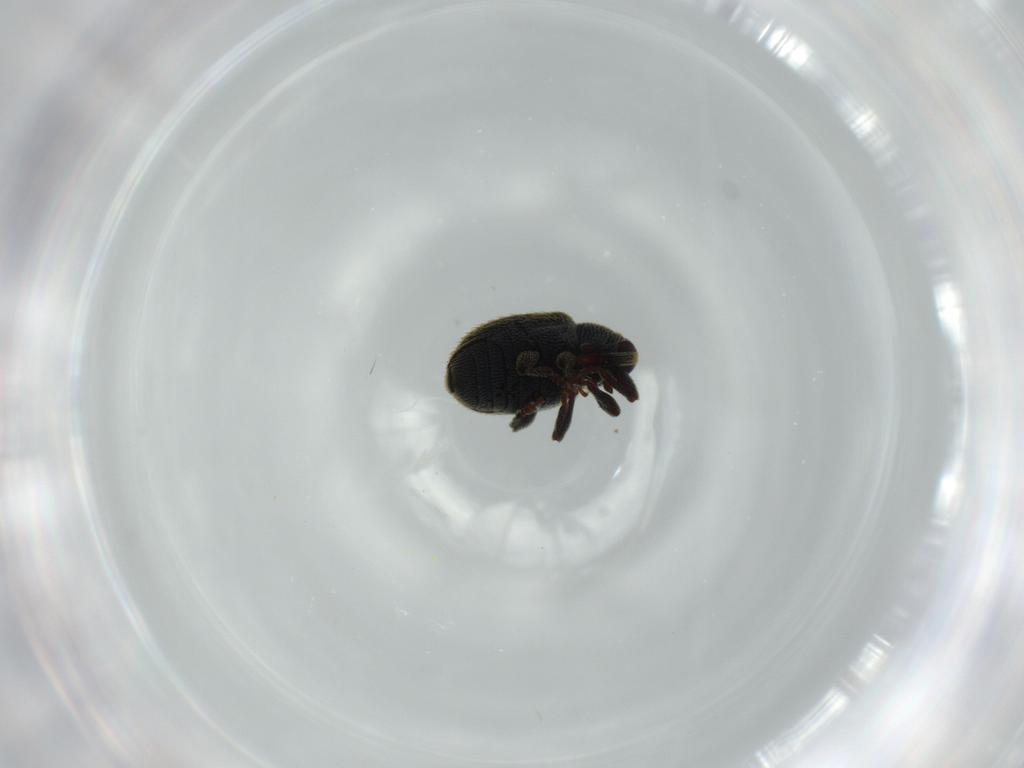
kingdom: Animalia
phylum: Arthropoda
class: Insecta
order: Coleoptera
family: Curculionidae
